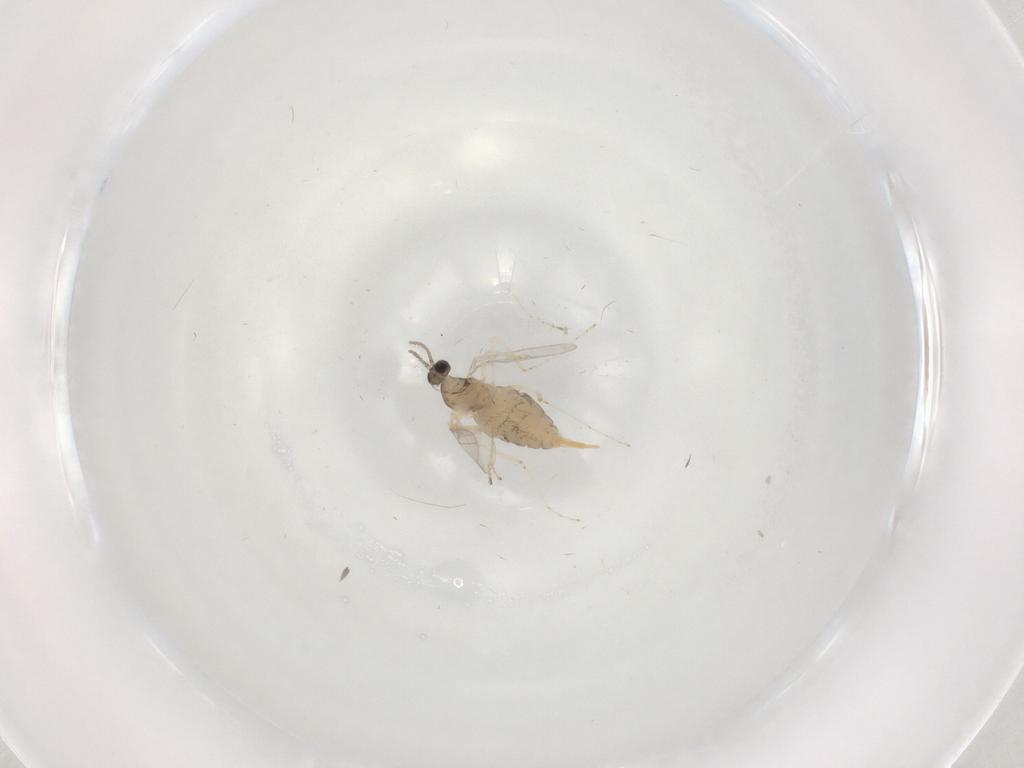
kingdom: Animalia
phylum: Arthropoda
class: Insecta
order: Diptera
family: Cecidomyiidae
